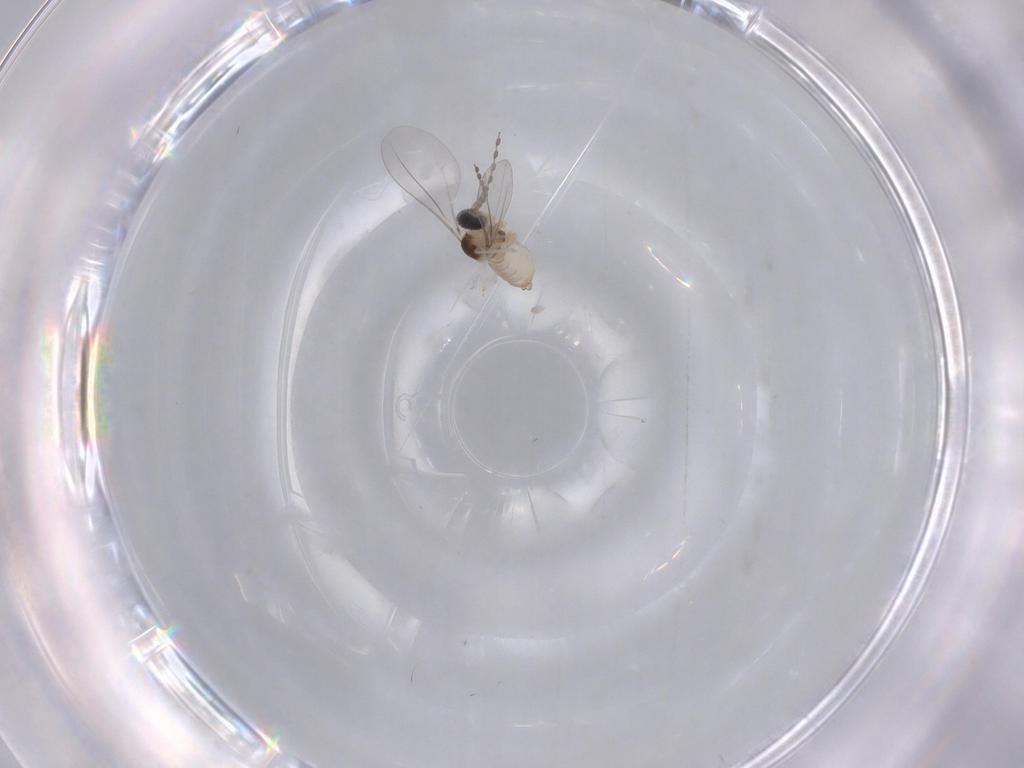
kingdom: Animalia
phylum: Arthropoda
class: Insecta
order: Diptera
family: Cecidomyiidae
